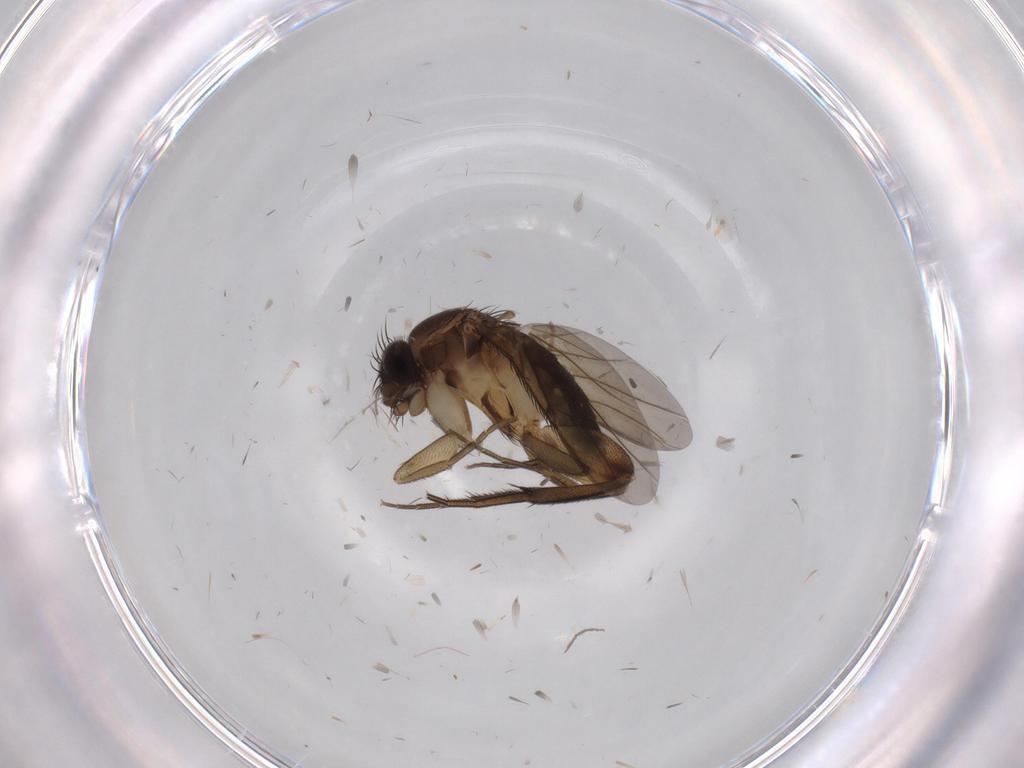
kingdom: Animalia
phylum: Arthropoda
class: Insecta
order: Diptera
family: Phoridae
